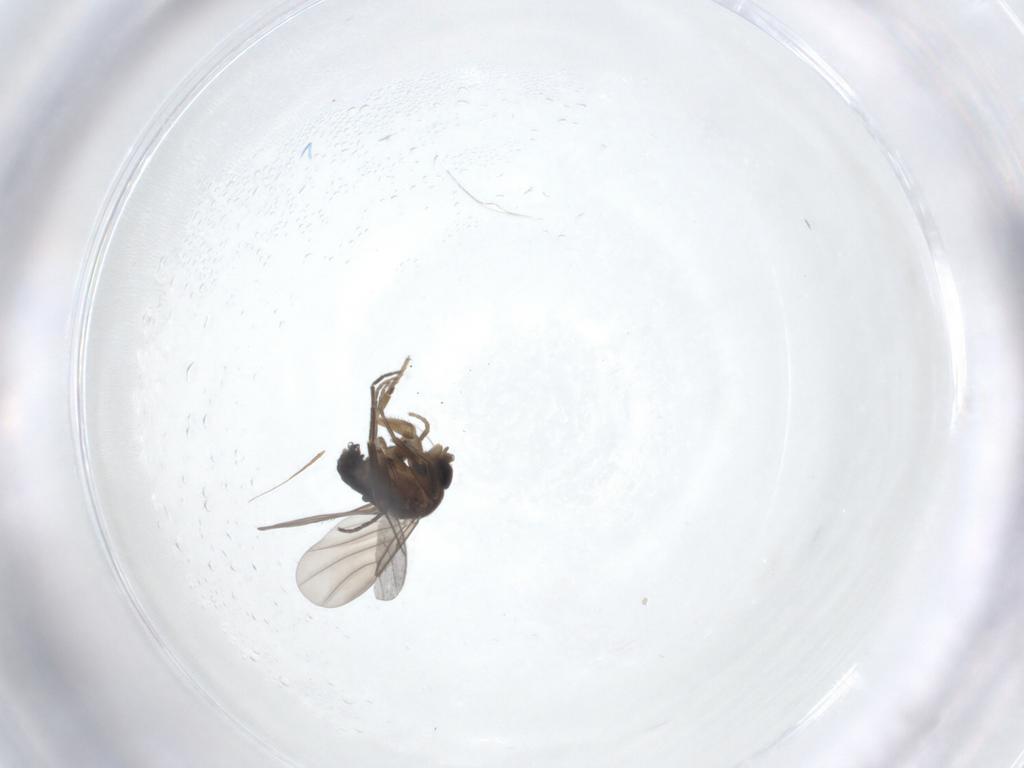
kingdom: Animalia
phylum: Arthropoda
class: Insecta
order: Diptera
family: Phoridae
